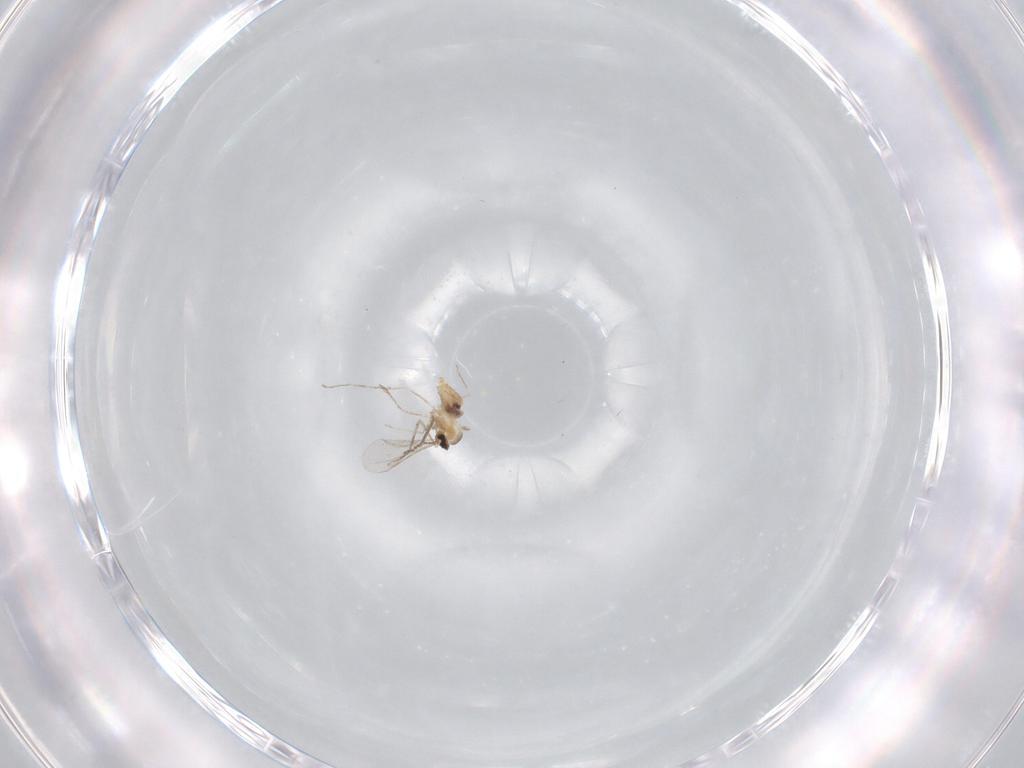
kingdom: Animalia
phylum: Arthropoda
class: Insecta
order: Diptera
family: Cecidomyiidae
